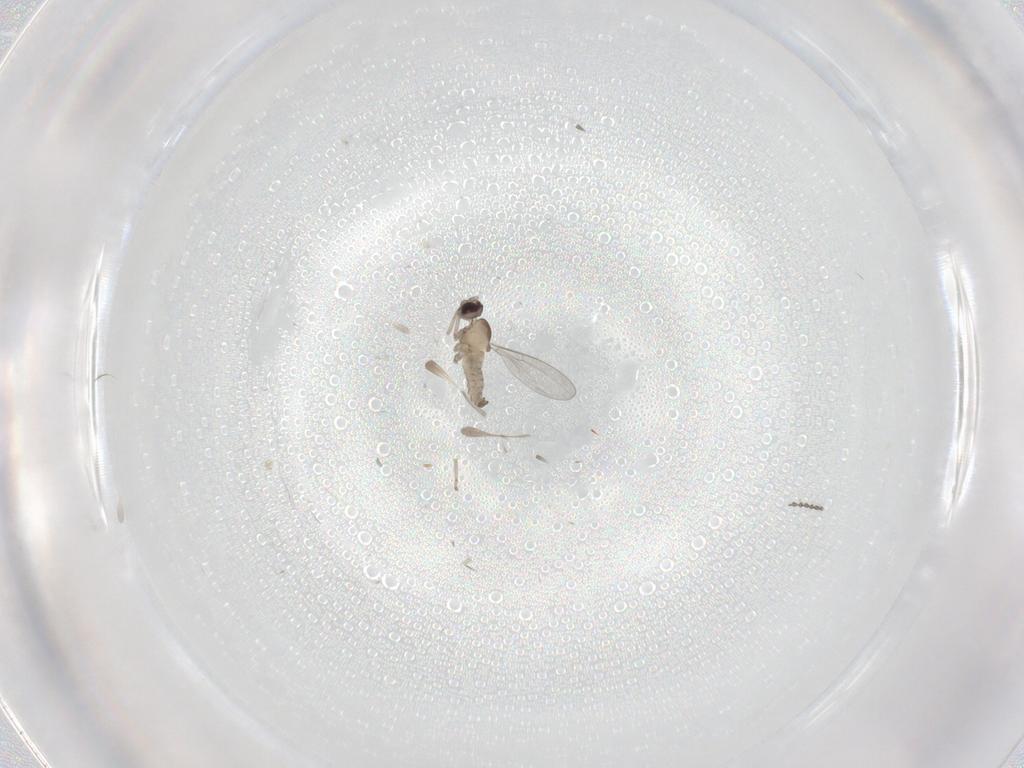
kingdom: Animalia
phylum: Arthropoda
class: Insecta
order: Diptera
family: Cecidomyiidae
